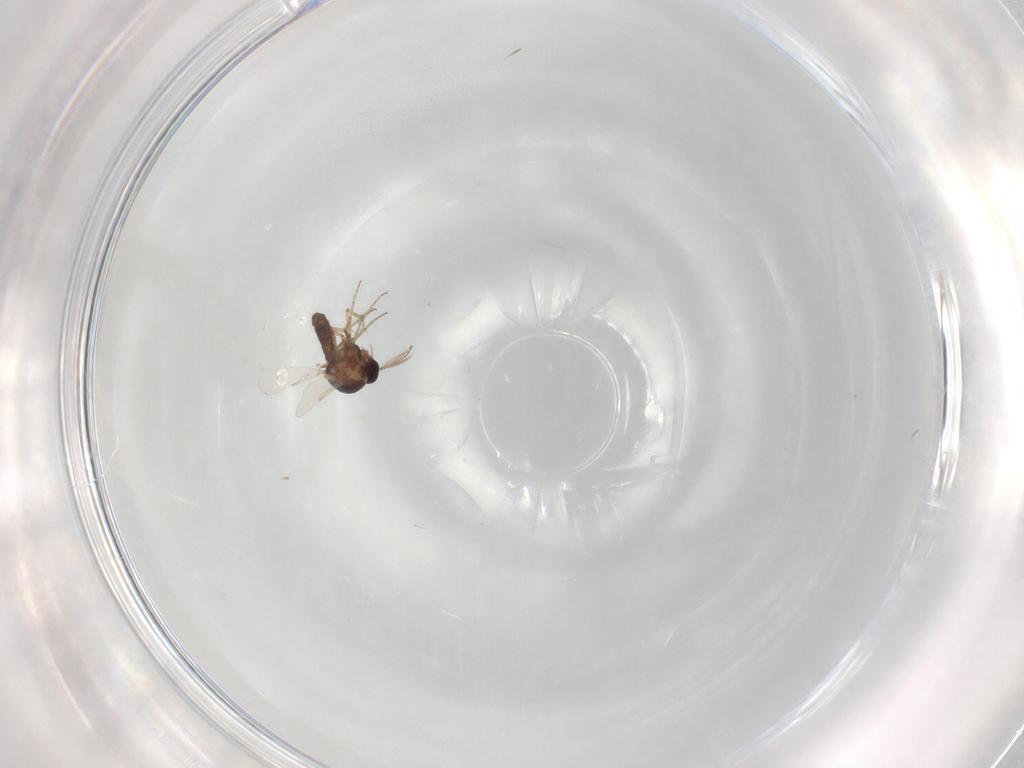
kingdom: Animalia
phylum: Arthropoda
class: Insecta
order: Diptera
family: Ceratopogonidae
